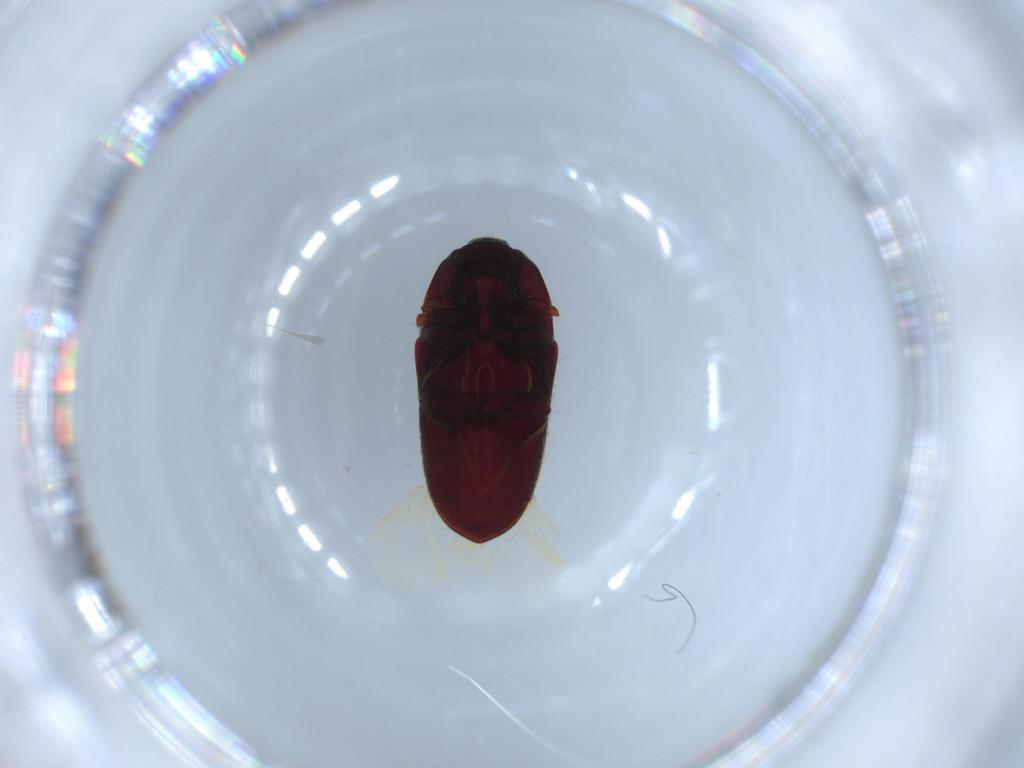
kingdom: Animalia
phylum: Arthropoda
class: Insecta
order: Coleoptera
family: Throscidae
